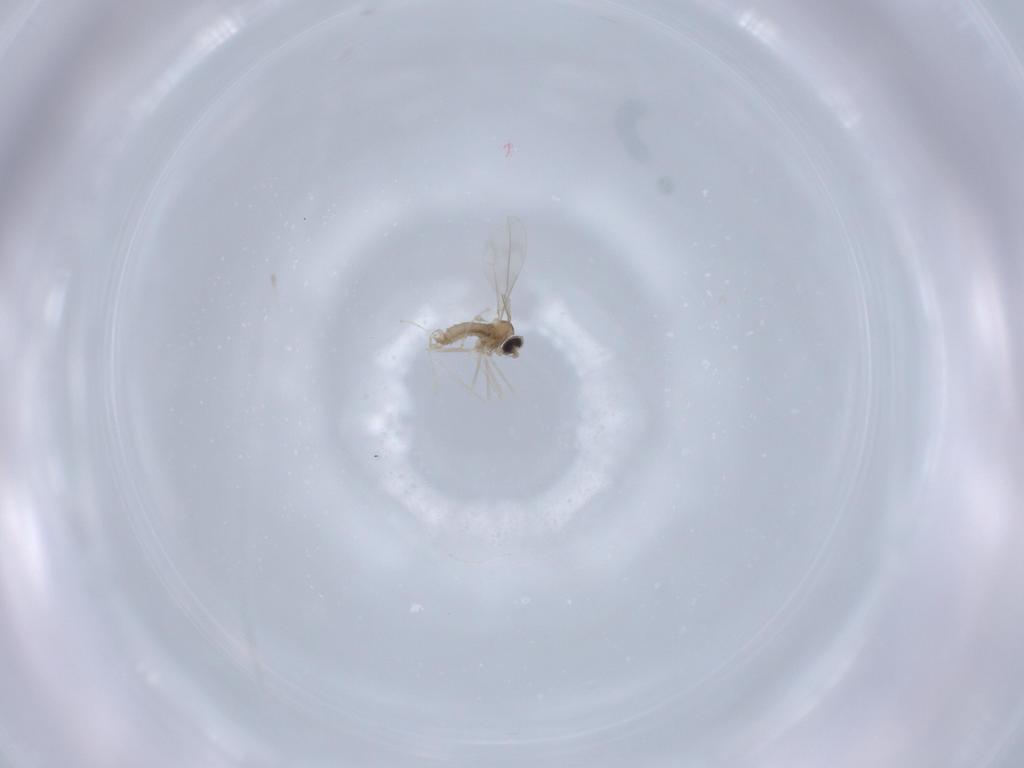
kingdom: Animalia
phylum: Arthropoda
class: Insecta
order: Diptera
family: Cecidomyiidae
